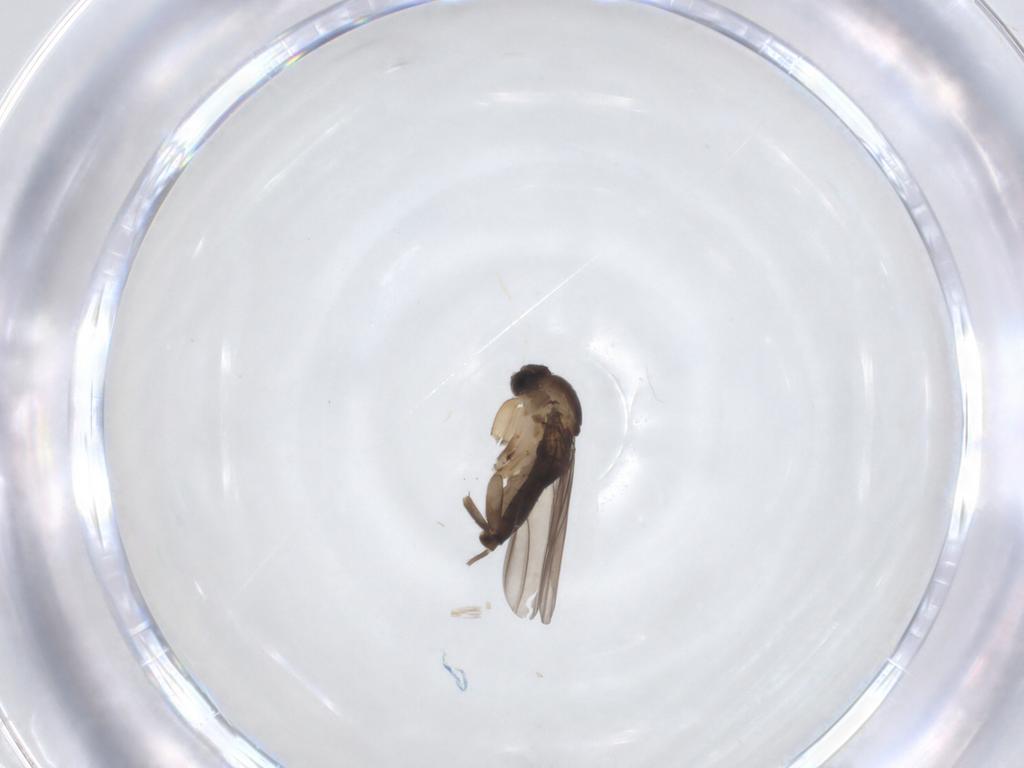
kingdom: Animalia
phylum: Arthropoda
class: Insecta
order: Diptera
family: Phoridae
